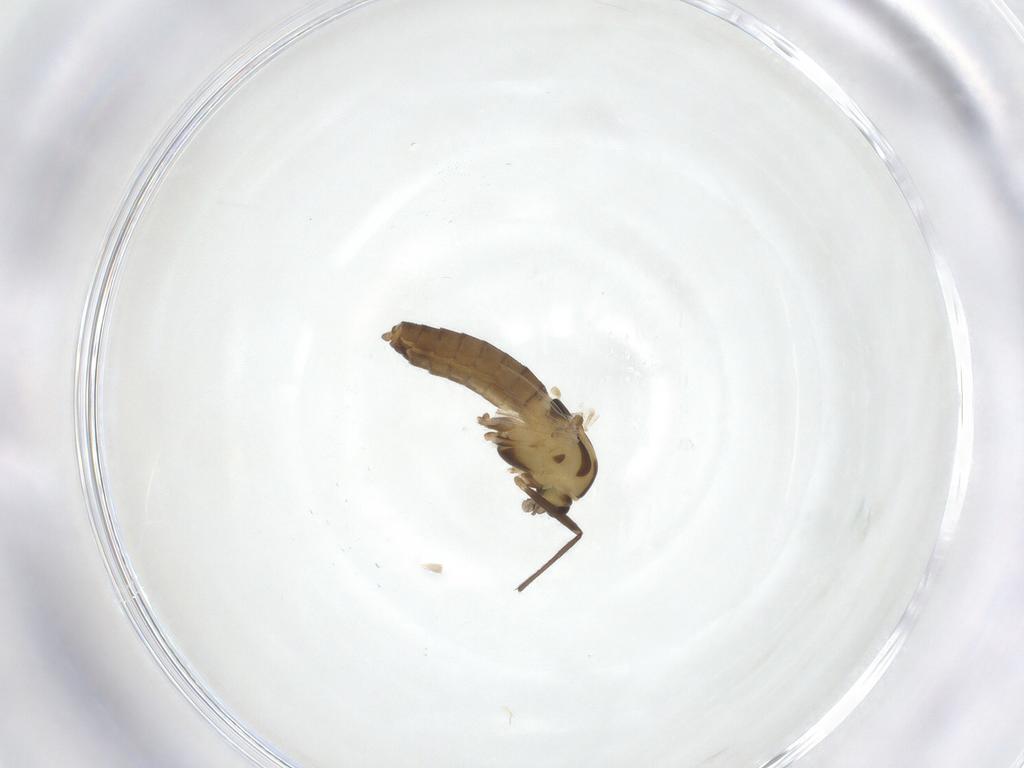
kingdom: Animalia
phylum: Arthropoda
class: Insecta
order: Diptera
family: Chironomidae
